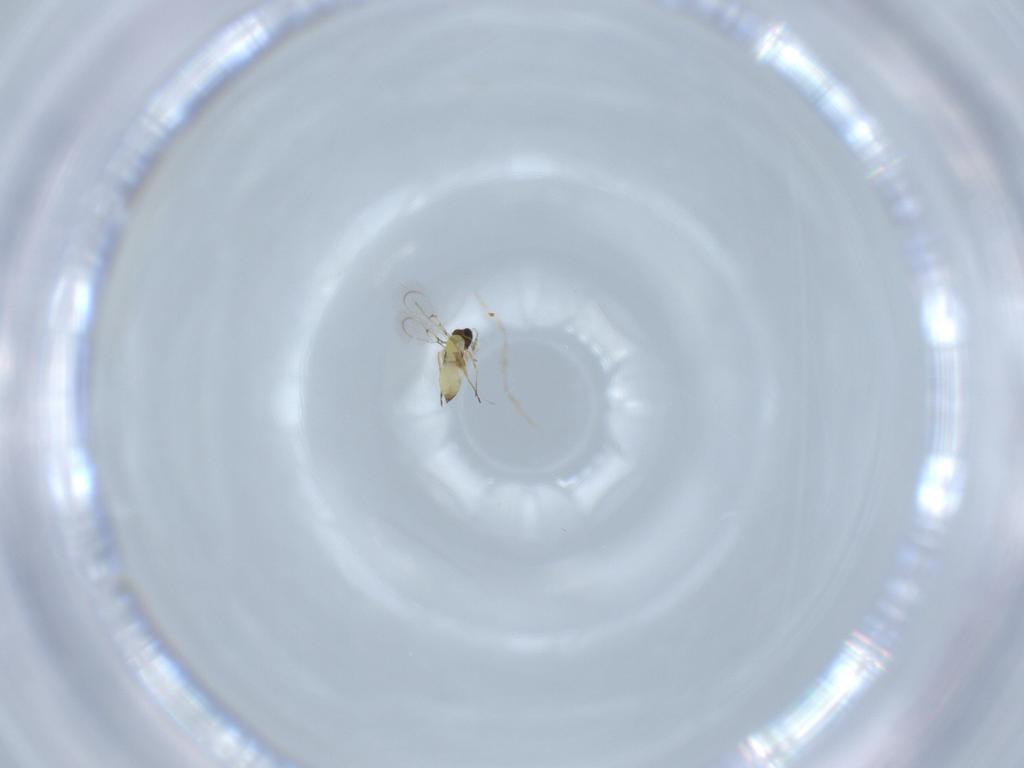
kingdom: Animalia
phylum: Arthropoda
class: Insecta
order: Hymenoptera
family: Trichogrammatidae
